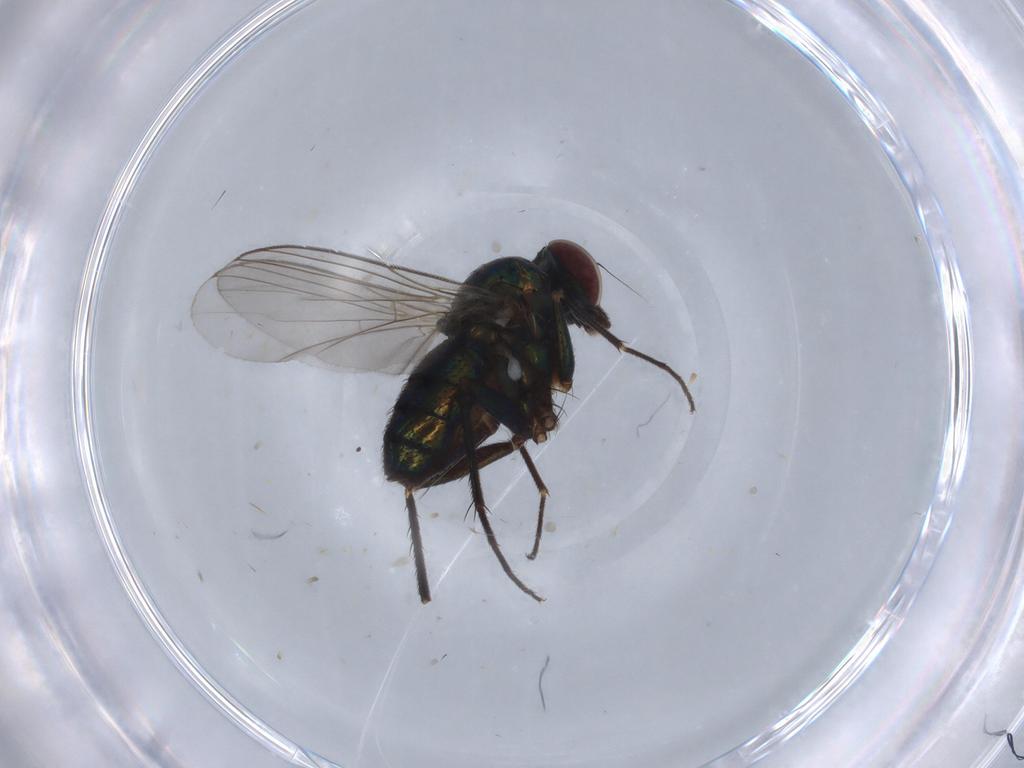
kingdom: Animalia
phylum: Arthropoda
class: Insecta
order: Diptera
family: Dolichopodidae
